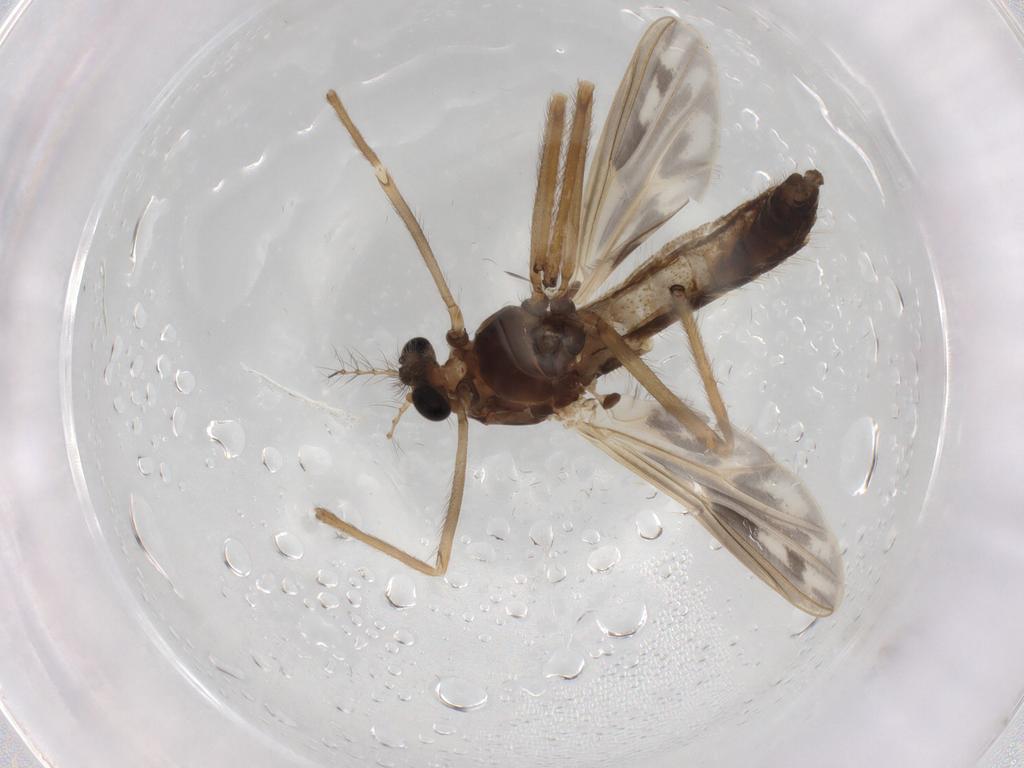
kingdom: Animalia
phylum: Arthropoda
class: Insecta
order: Diptera
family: Chironomidae
